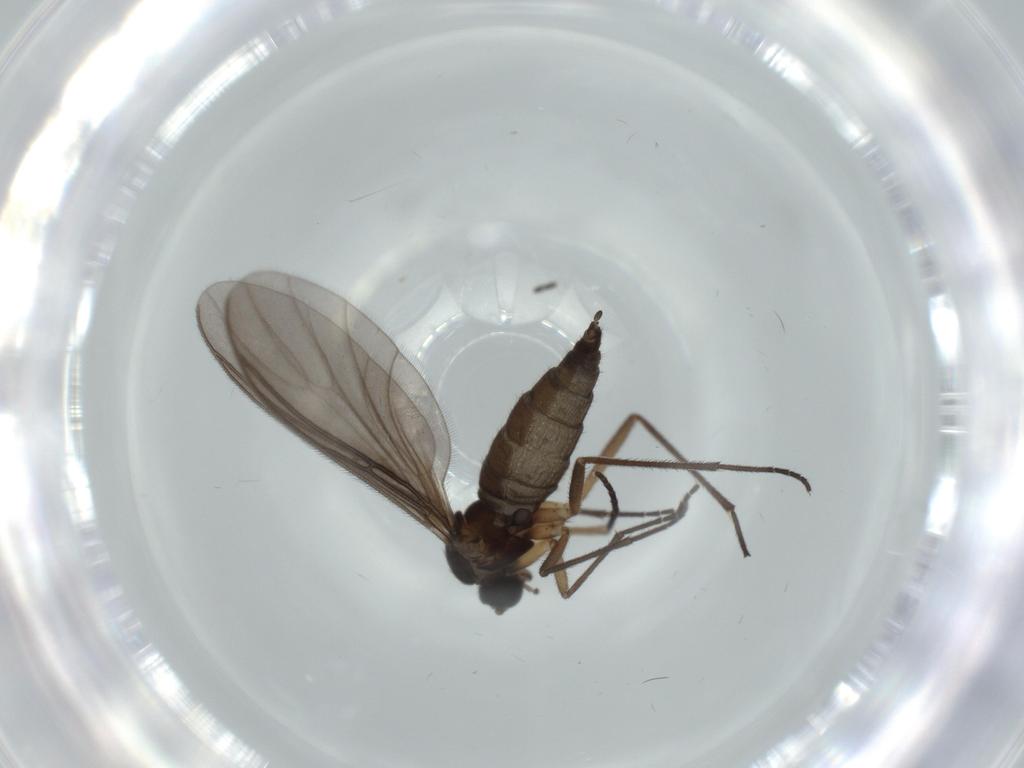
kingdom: Animalia
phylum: Arthropoda
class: Insecta
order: Diptera
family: Sciaridae
